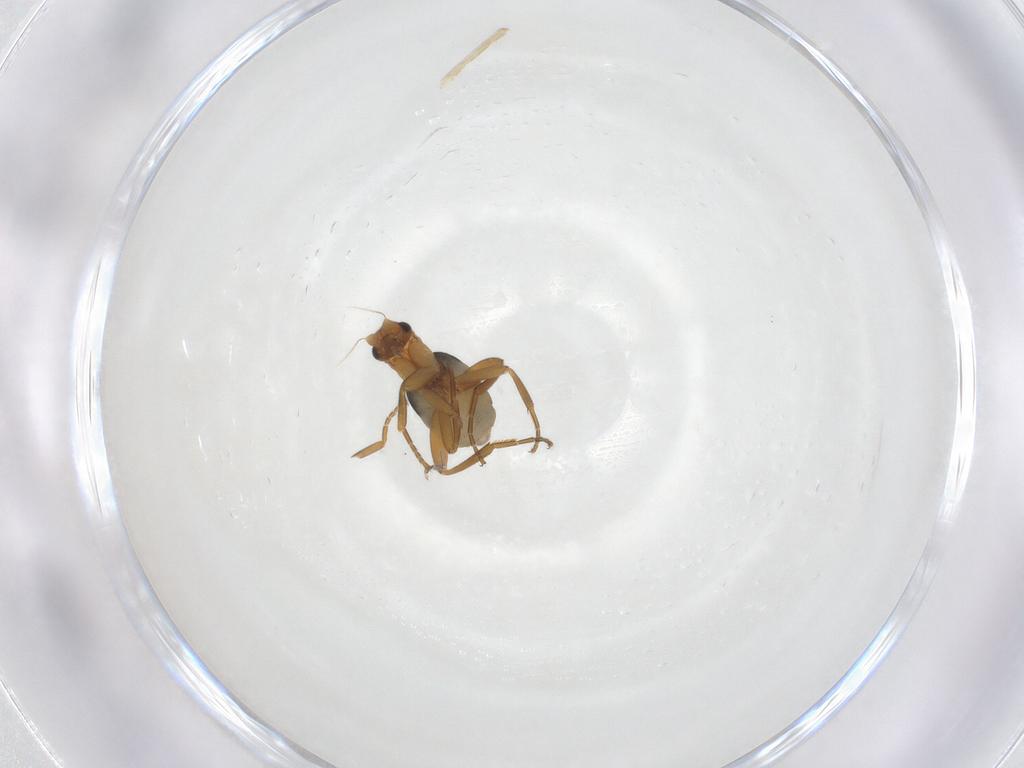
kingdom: Animalia
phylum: Arthropoda
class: Insecta
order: Diptera
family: Phoridae
